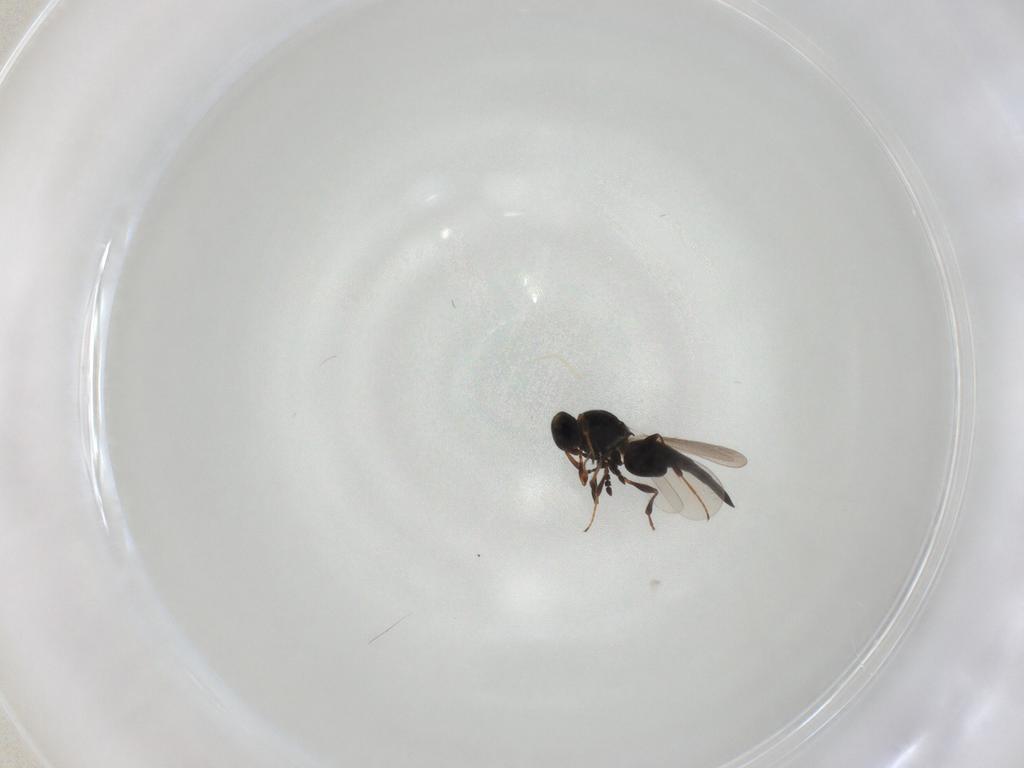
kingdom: Animalia
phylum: Arthropoda
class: Insecta
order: Hymenoptera
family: Platygastridae
